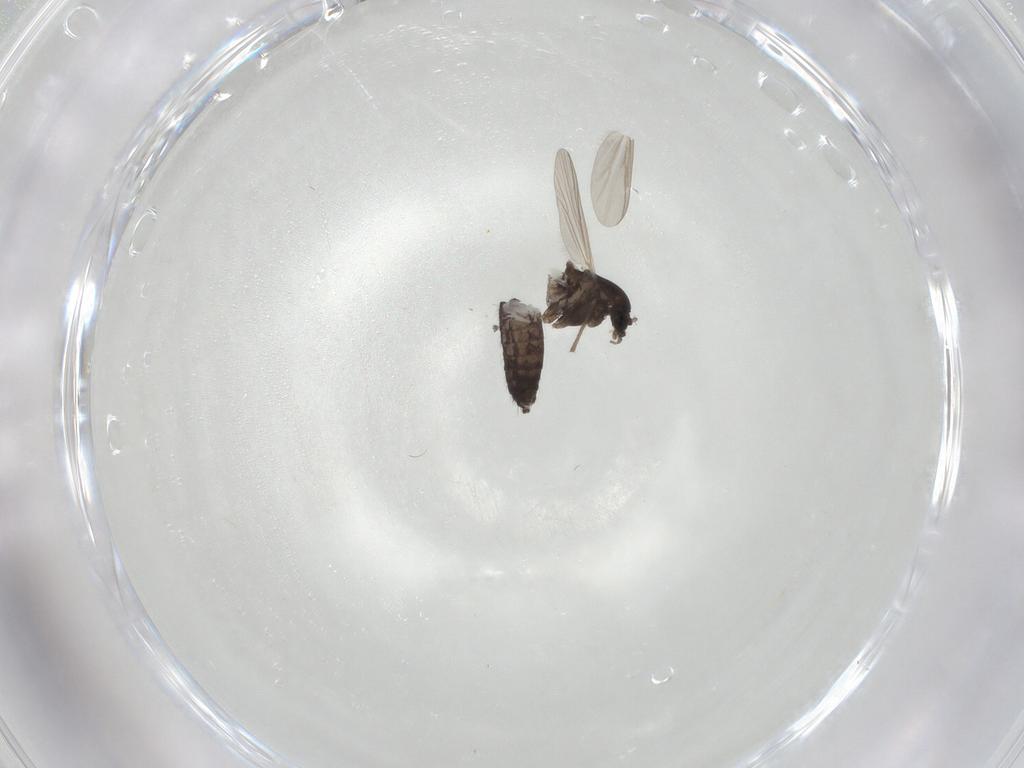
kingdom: Animalia
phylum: Arthropoda
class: Insecta
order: Diptera
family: Chironomidae
